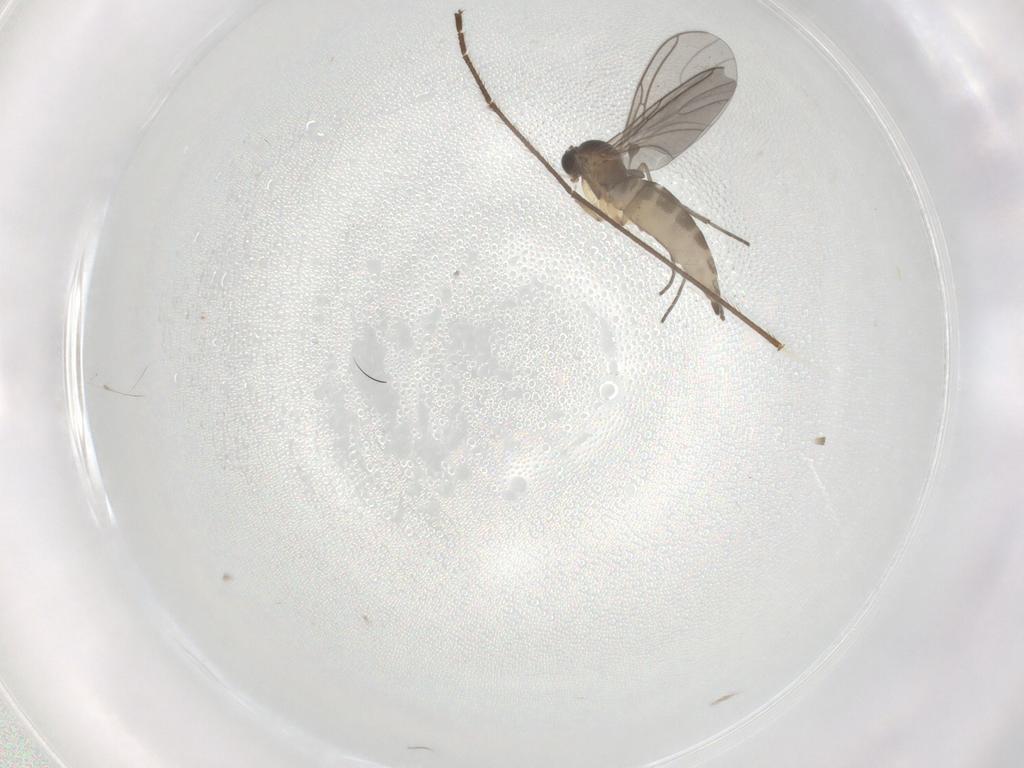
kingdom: Animalia
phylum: Arthropoda
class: Insecta
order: Diptera
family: Sciaridae
